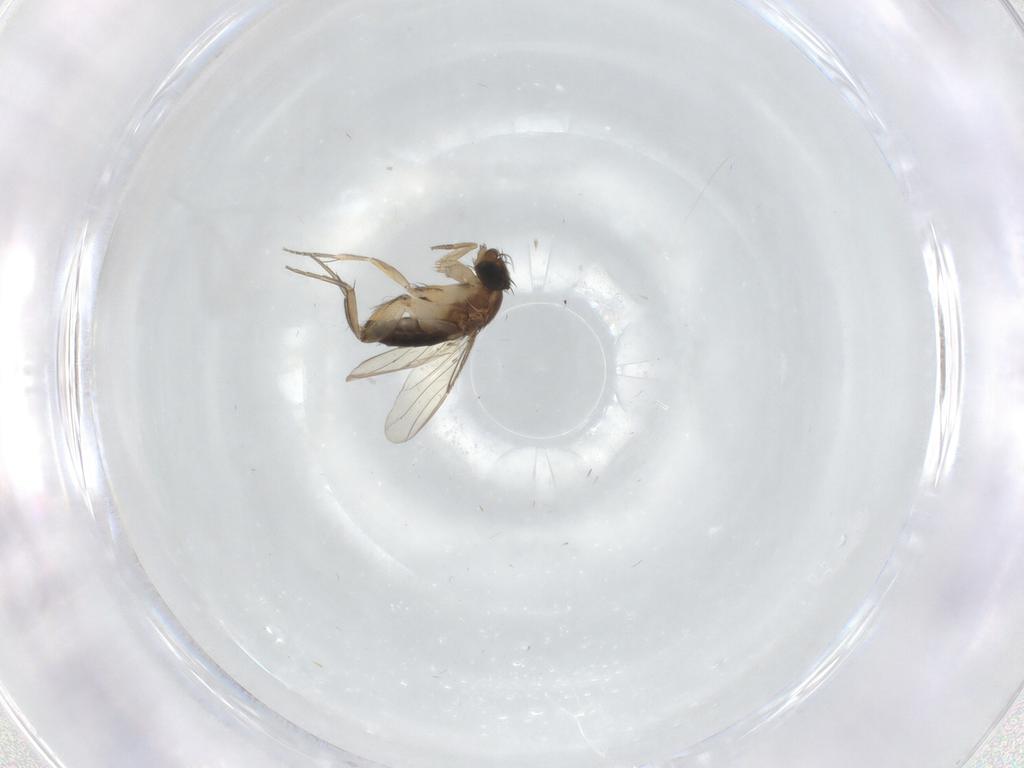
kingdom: Animalia
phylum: Arthropoda
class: Insecta
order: Diptera
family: Phoridae
